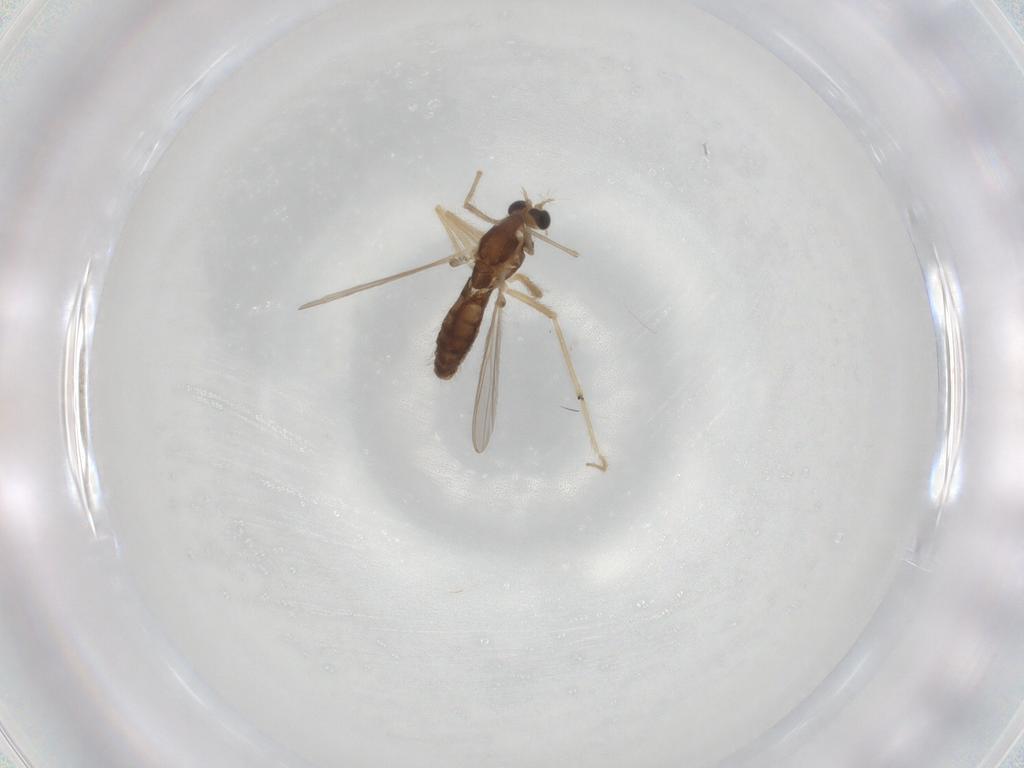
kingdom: Animalia
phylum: Arthropoda
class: Insecta
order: Diptera
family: Chironomidae
